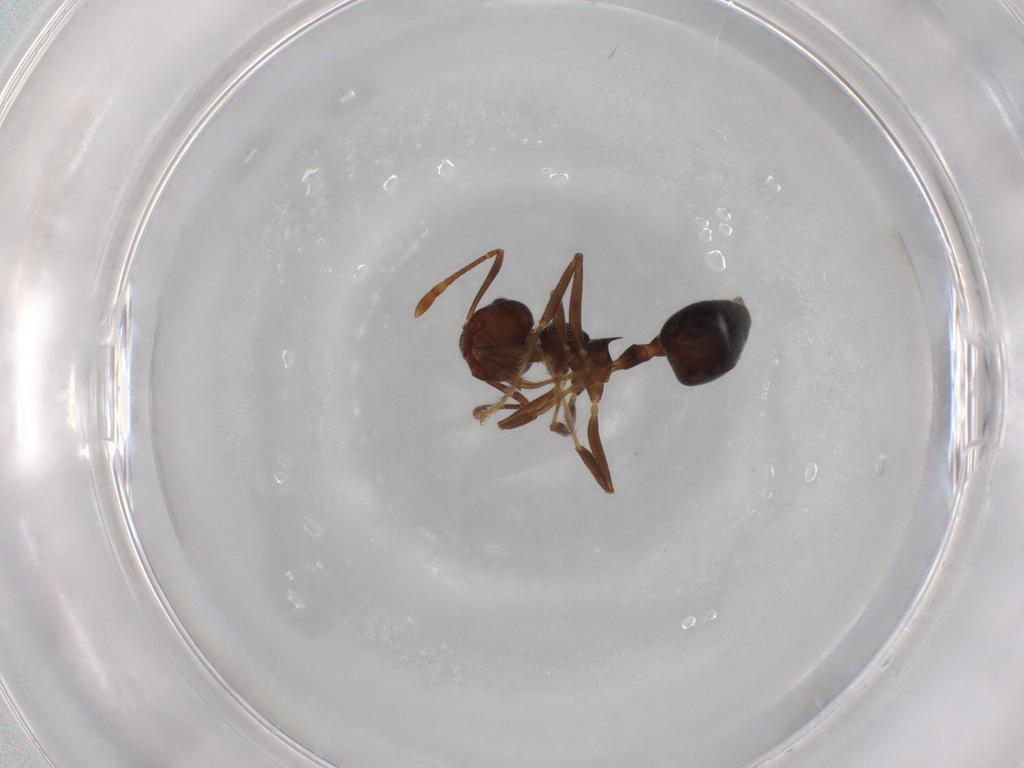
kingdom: Animalia
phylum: Arthropoda
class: Insecta
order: Hymenoptera
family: Formicidae
